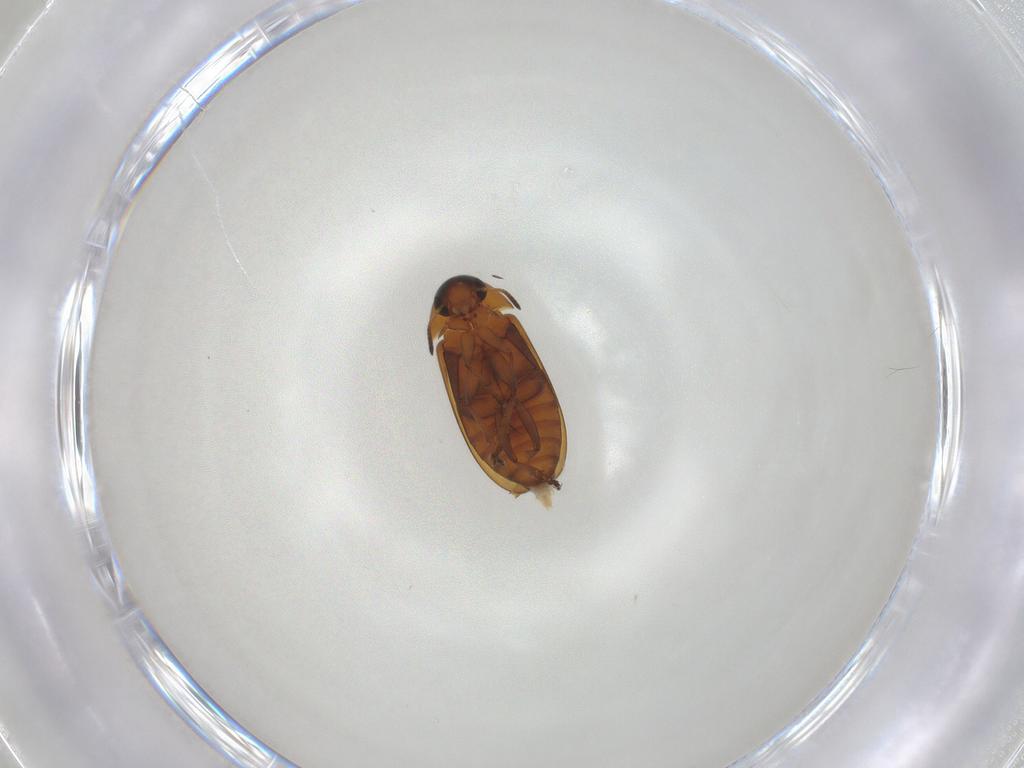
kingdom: Animalia
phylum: Arthropoda
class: Insecta
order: Coleoptera
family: Scraptiidae
